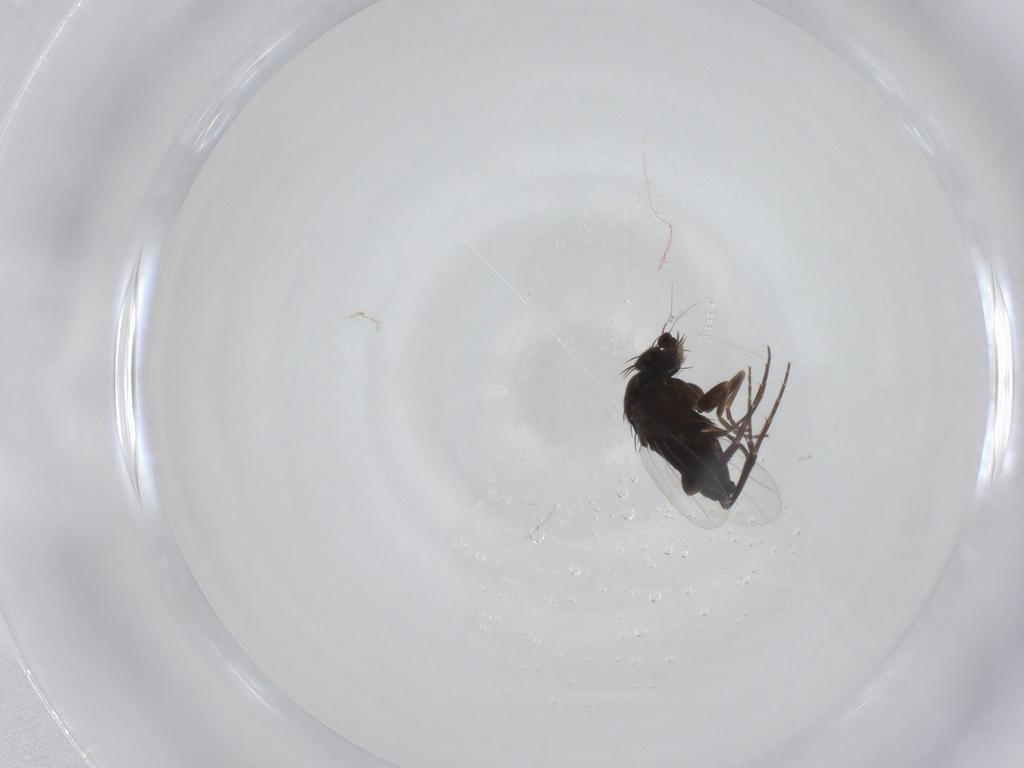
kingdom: Animalia
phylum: Arthropoda
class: Insecta
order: Diptera
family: Phoridae
